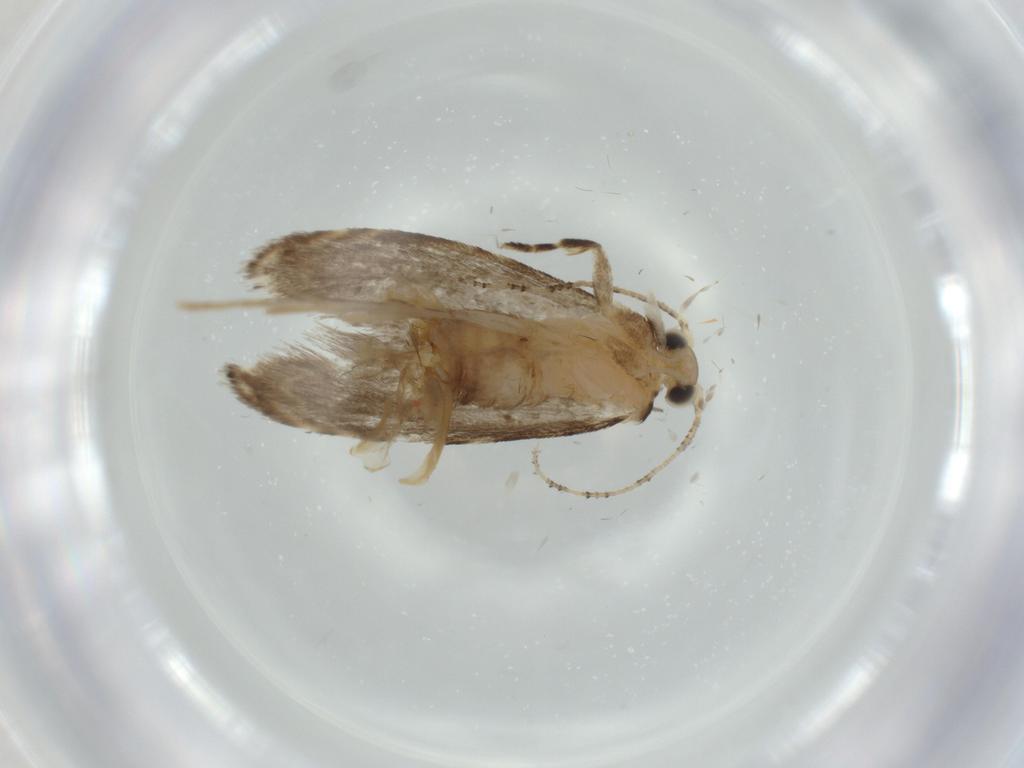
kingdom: Animalia
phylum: Arthropoda
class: Insecta
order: Lepidoptera
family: Tineidae
